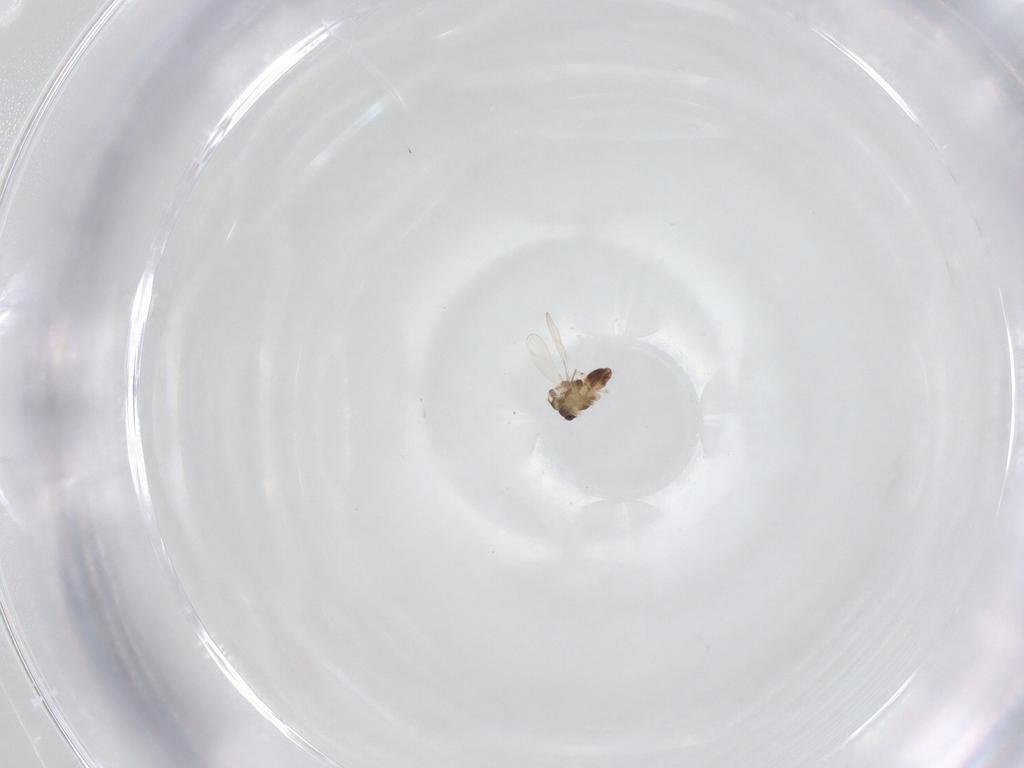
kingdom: Animalia
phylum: Arthropoda
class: Insecta
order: Diptera
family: Chironomidae
